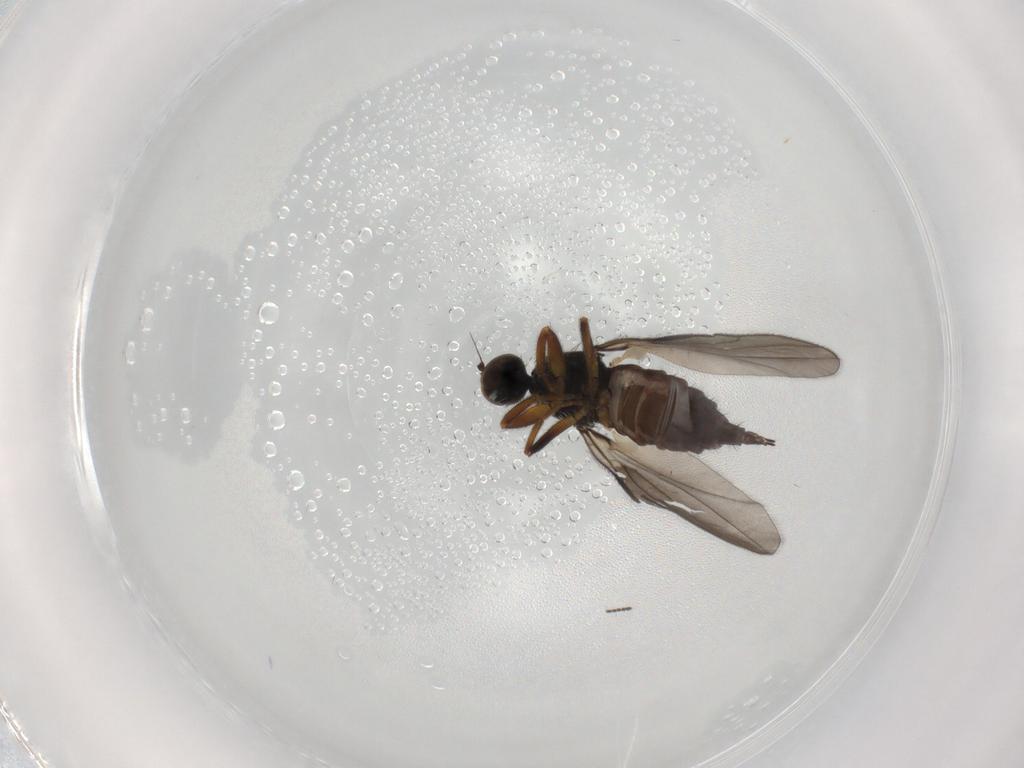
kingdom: Animalia
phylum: Arthropoda
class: Insecta
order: Diptera
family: Hybotidae
